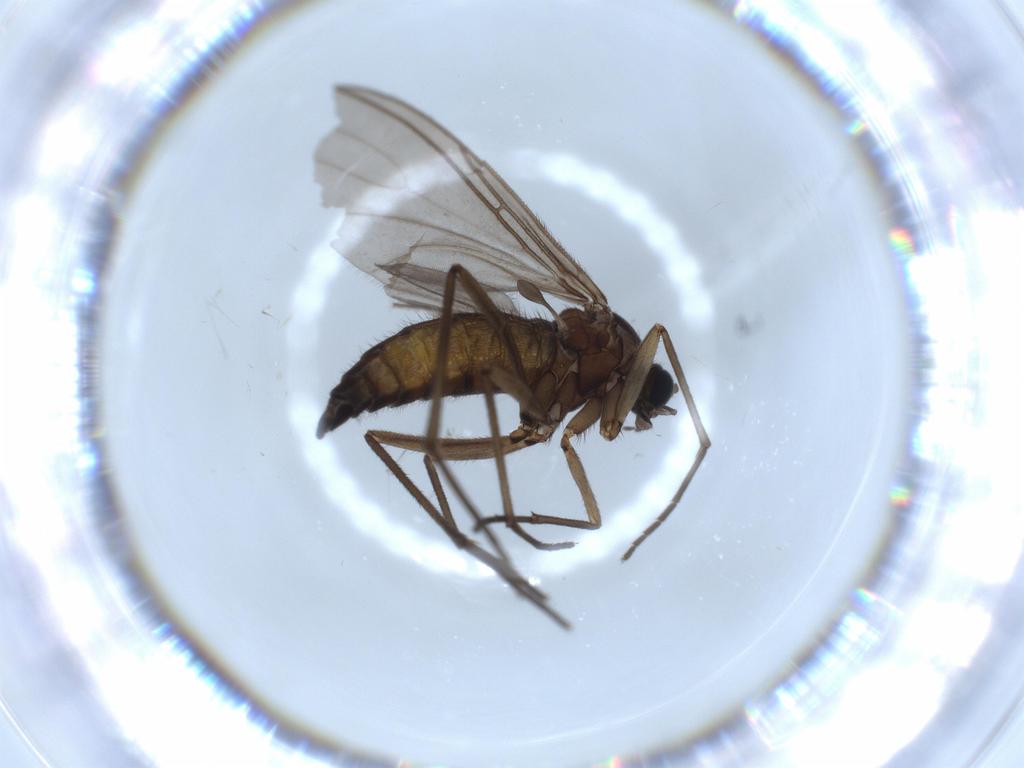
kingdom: Animalia
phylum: Arthropoda
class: Insecta
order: Diptera
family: Sciaridae
